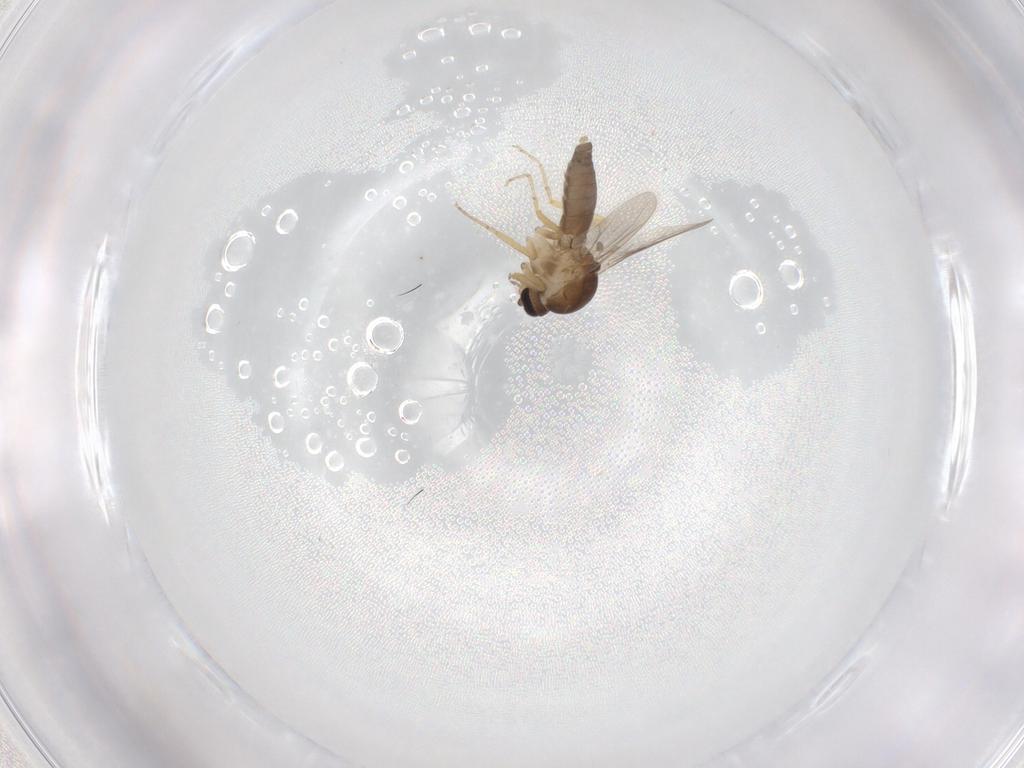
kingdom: Animalia
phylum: Arthropoda
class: Insecta
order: Diptera
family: Ceratopogonidae
